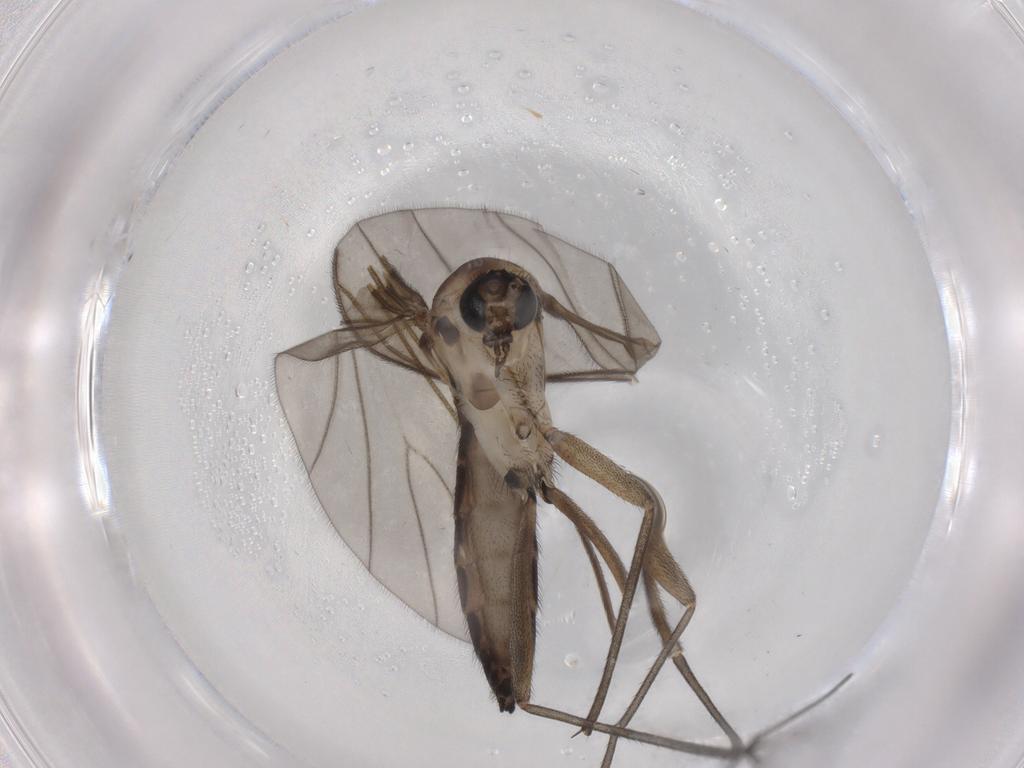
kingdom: Animalia
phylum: Arthropoda
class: Insecta
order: Diptera
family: Sciaridae
